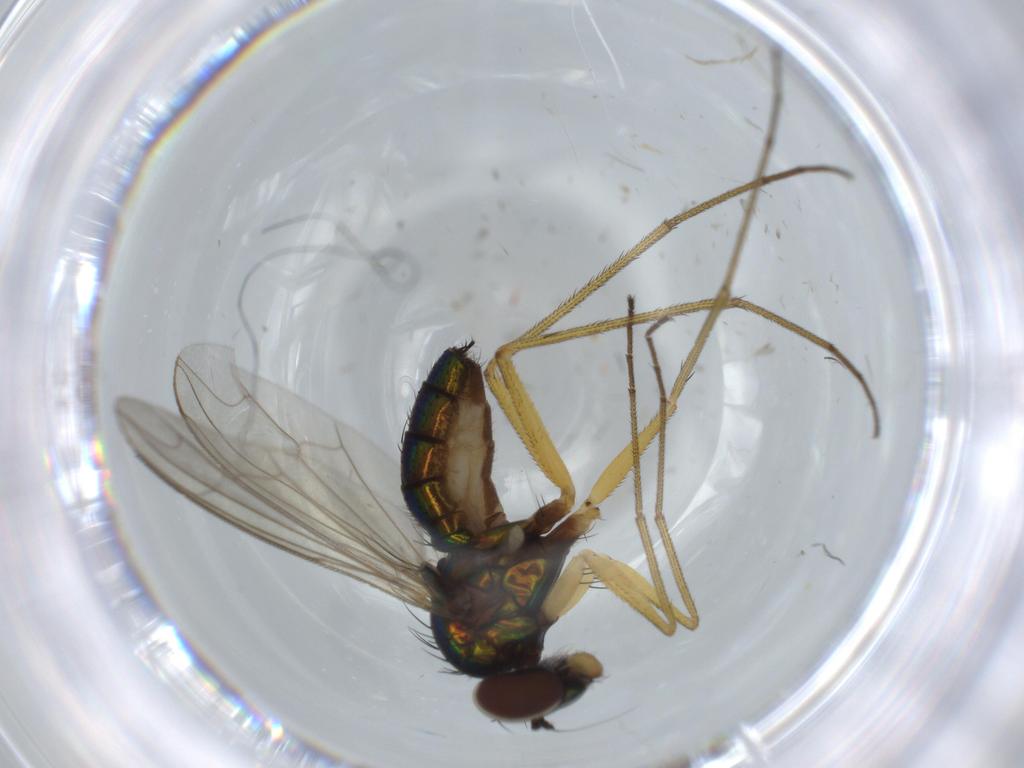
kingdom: Animalia
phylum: Arthropoda
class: Insecta
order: Diptera
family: Dolichopodidae
